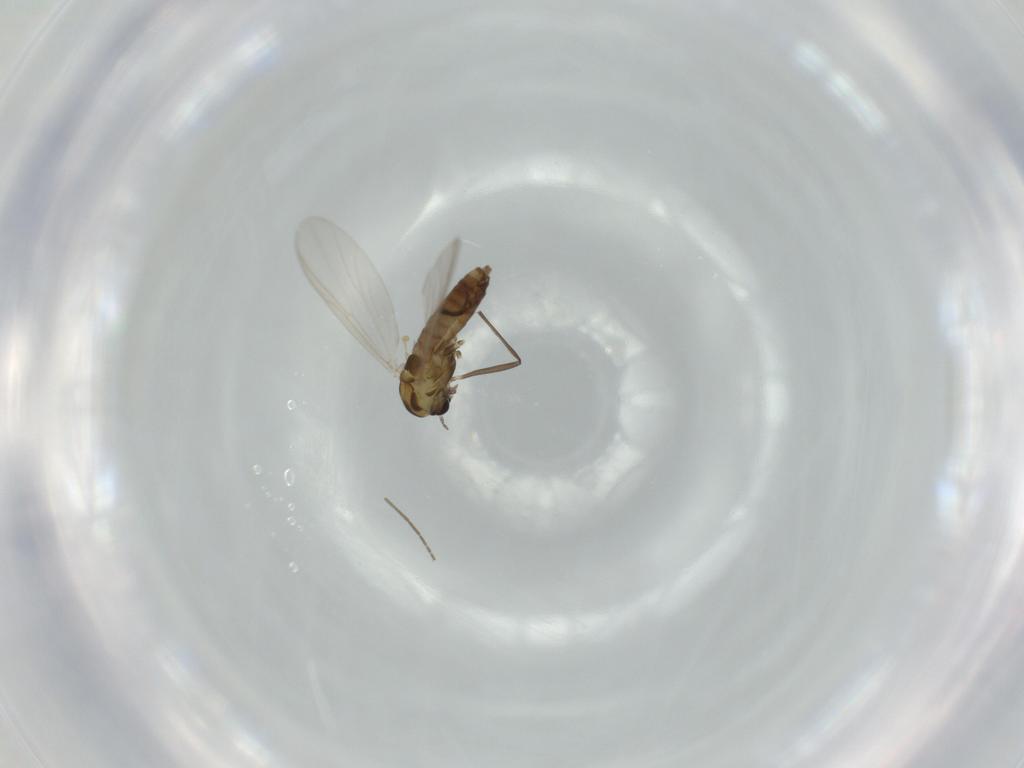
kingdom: Animalia
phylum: Arthropoda
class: Insecta
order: Diptera
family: Chironomidae
